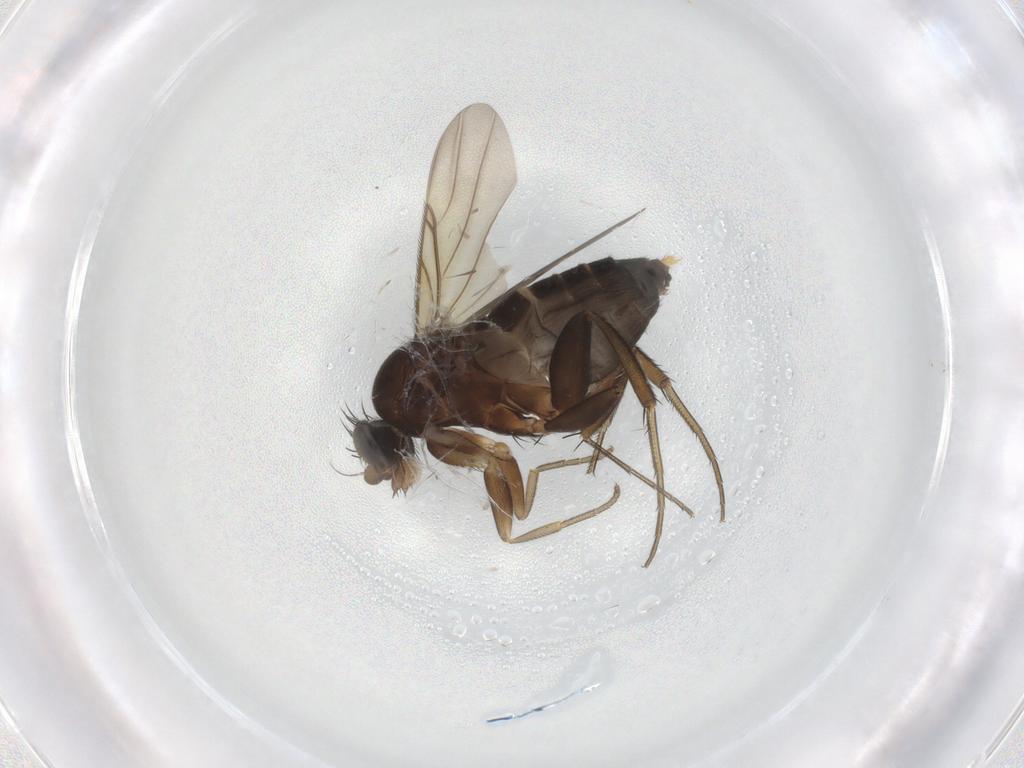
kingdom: Animalia
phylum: Arthropoda
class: Insecta
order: Diptera
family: Phoridae
